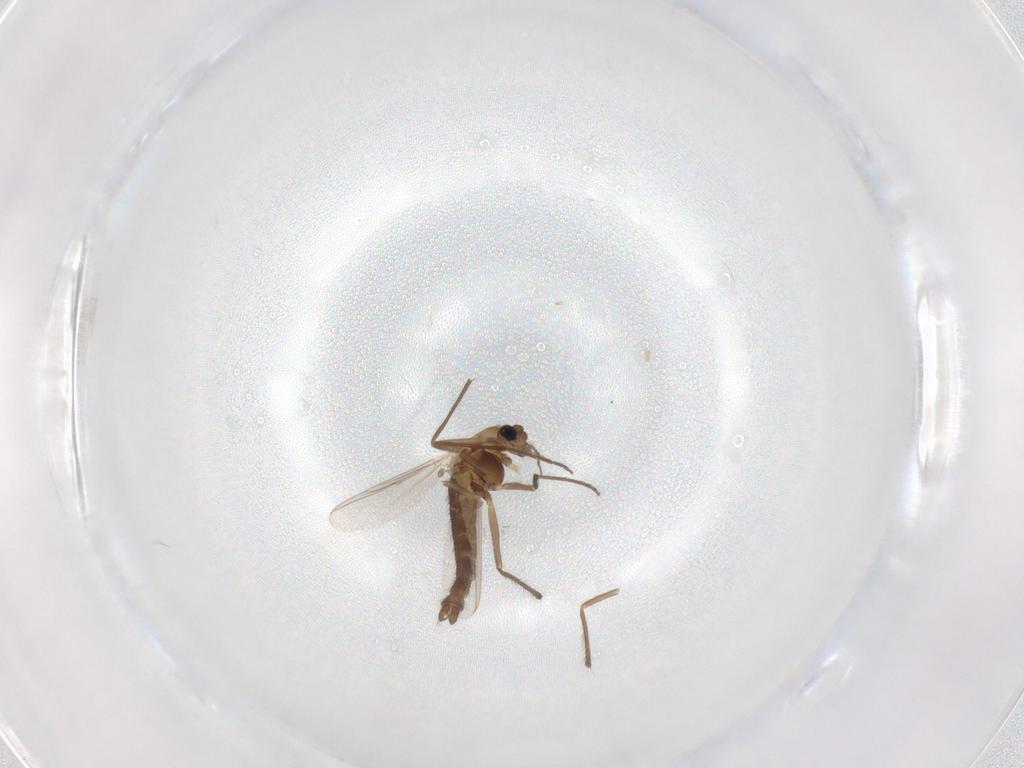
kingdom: Animalia
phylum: Arthropoda
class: Insecta
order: Diptera
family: Chironomidae
